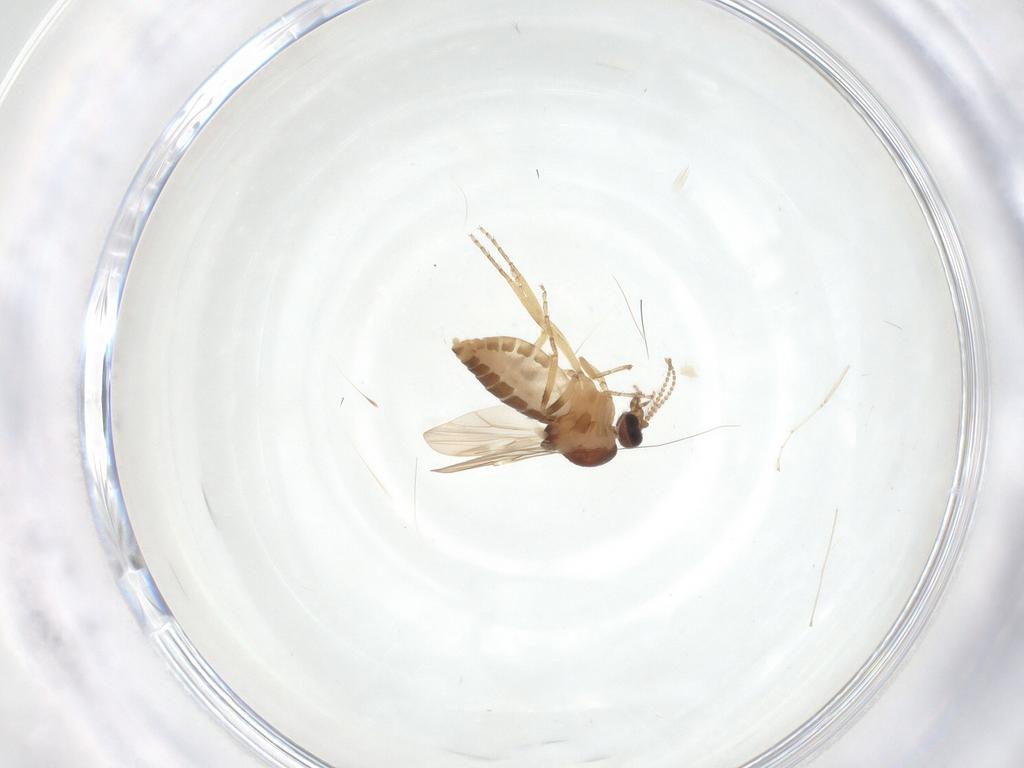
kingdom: Animalia
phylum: Arthropoda
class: Insecta
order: Diptera
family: Ceratopogonidae
